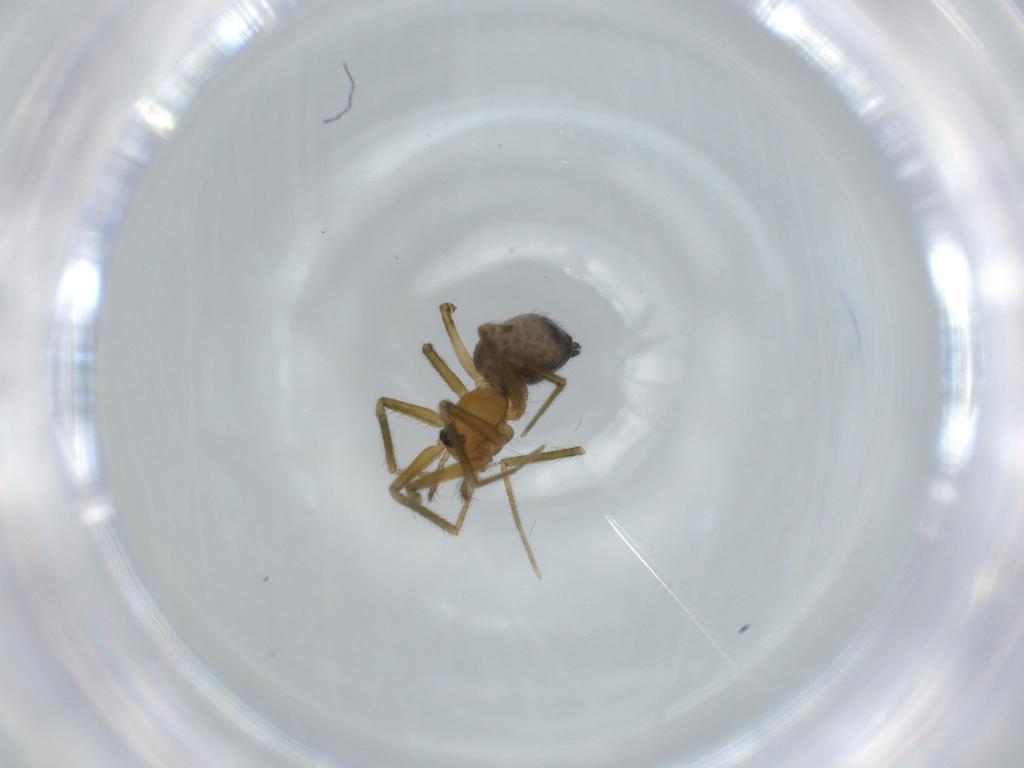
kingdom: Animalia
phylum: Arthropoda
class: Arachnida
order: Araneae
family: Linyphiidae
